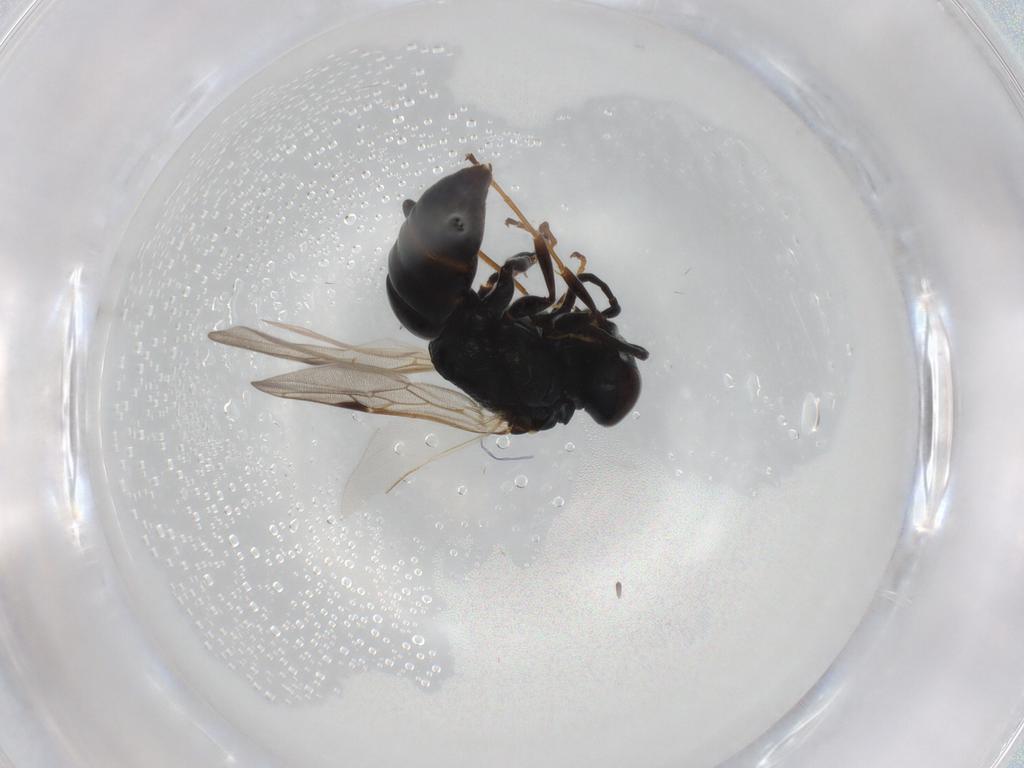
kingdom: Animalia
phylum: Arthropoda
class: Insecta
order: Hymenoptera
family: Crabronidae
